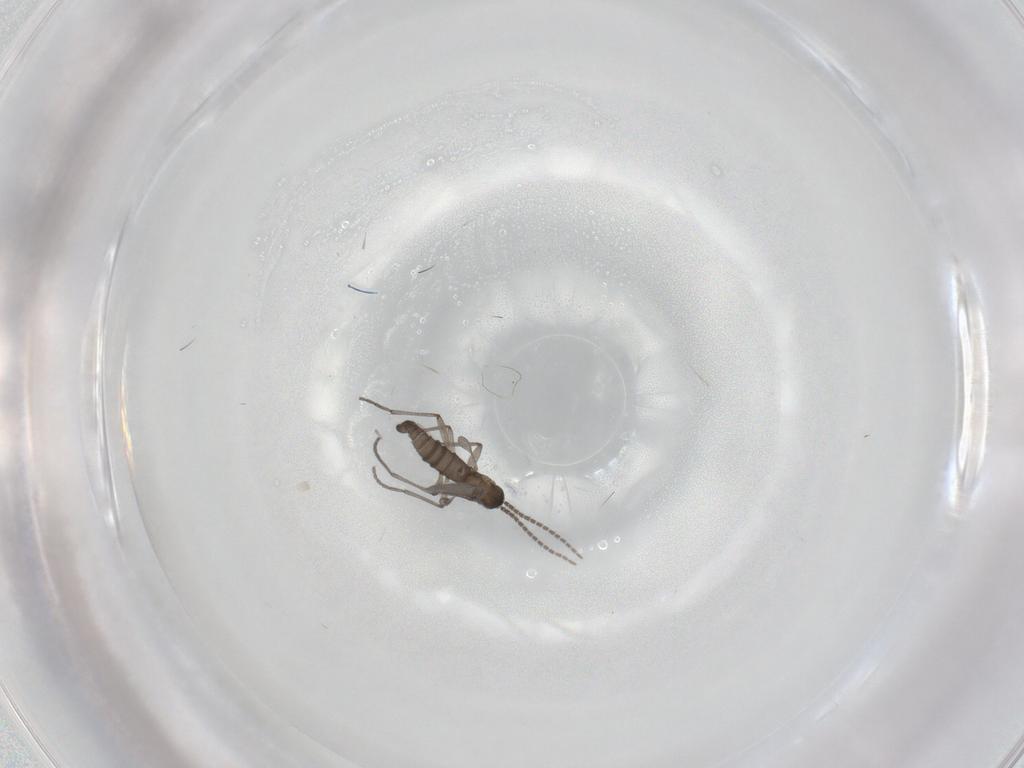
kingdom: Animalia
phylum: Arthropoda
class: Insecta
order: Diptera
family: Sciaridae
